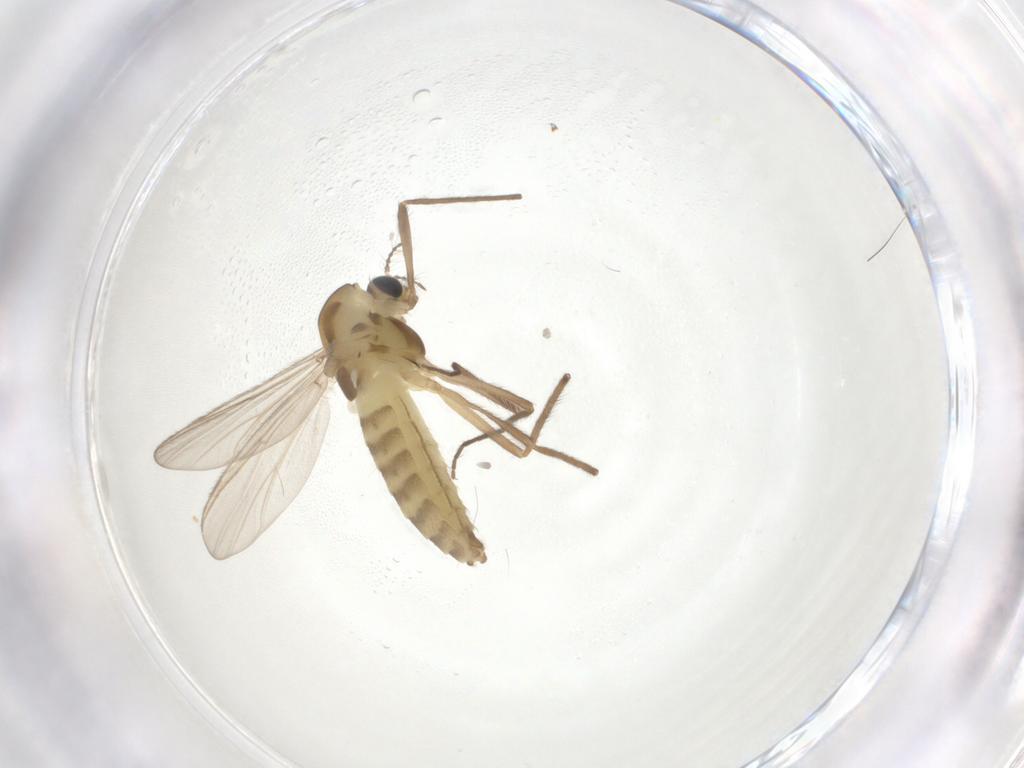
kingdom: Animalia
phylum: Arthropoda
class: Insecta
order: Diptera
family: Chironomidae
